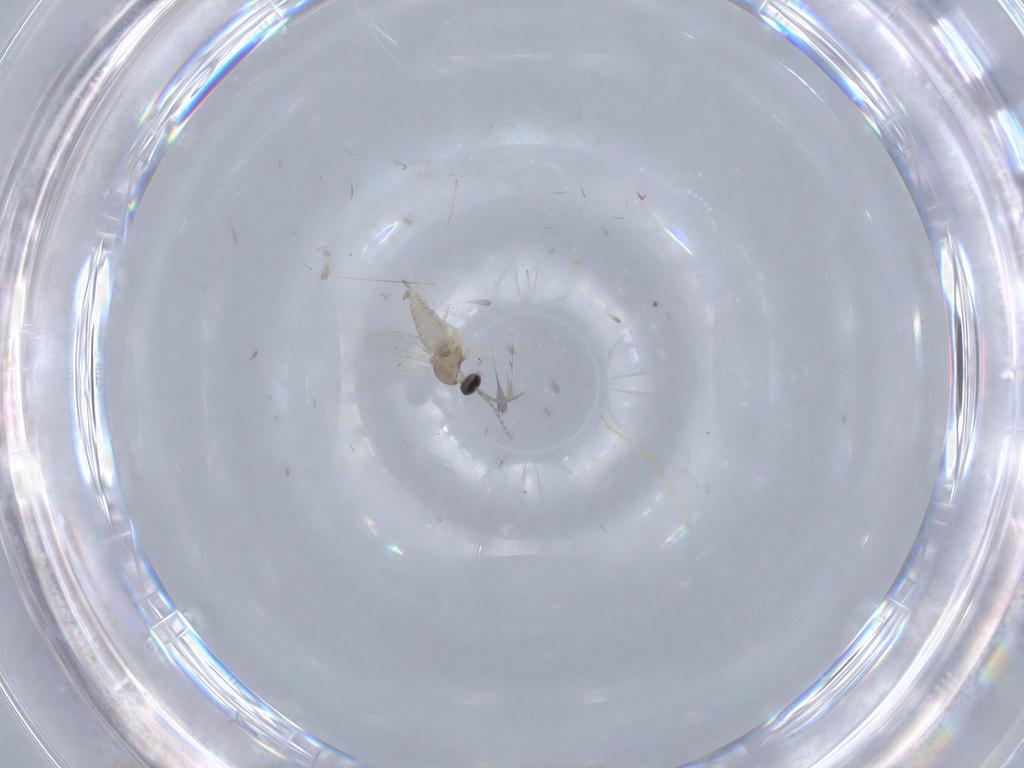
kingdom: Animalia
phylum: Arthropoda
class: Insecta
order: Diptera
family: Cecidomyiidae
